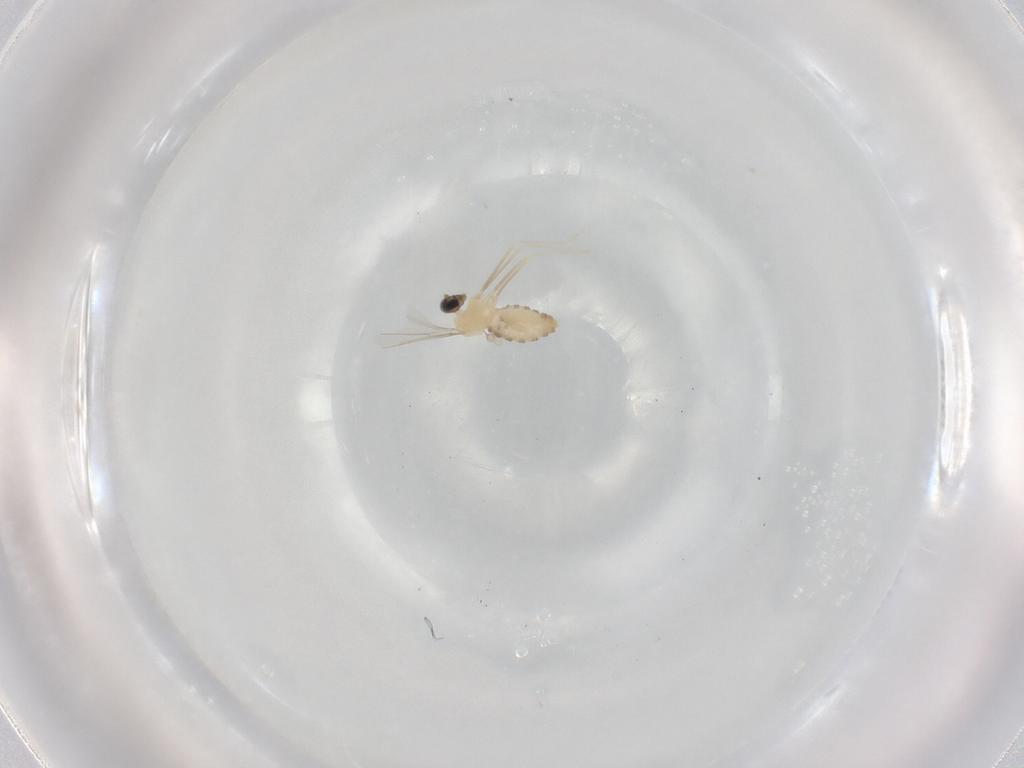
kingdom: Animalia
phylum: Arthropoda
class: Insecta
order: Diptera
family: Cecidomyiidae
